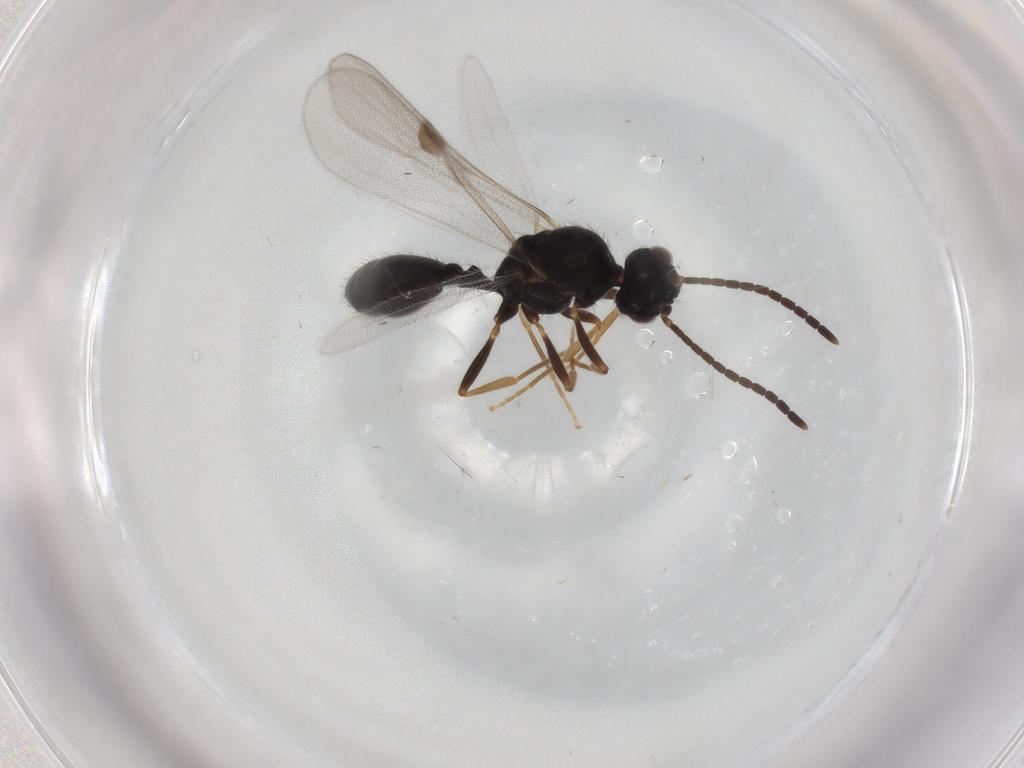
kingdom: Animalia
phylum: Arthropoda
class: Insecta
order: Hymenoptera
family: Formicidae
